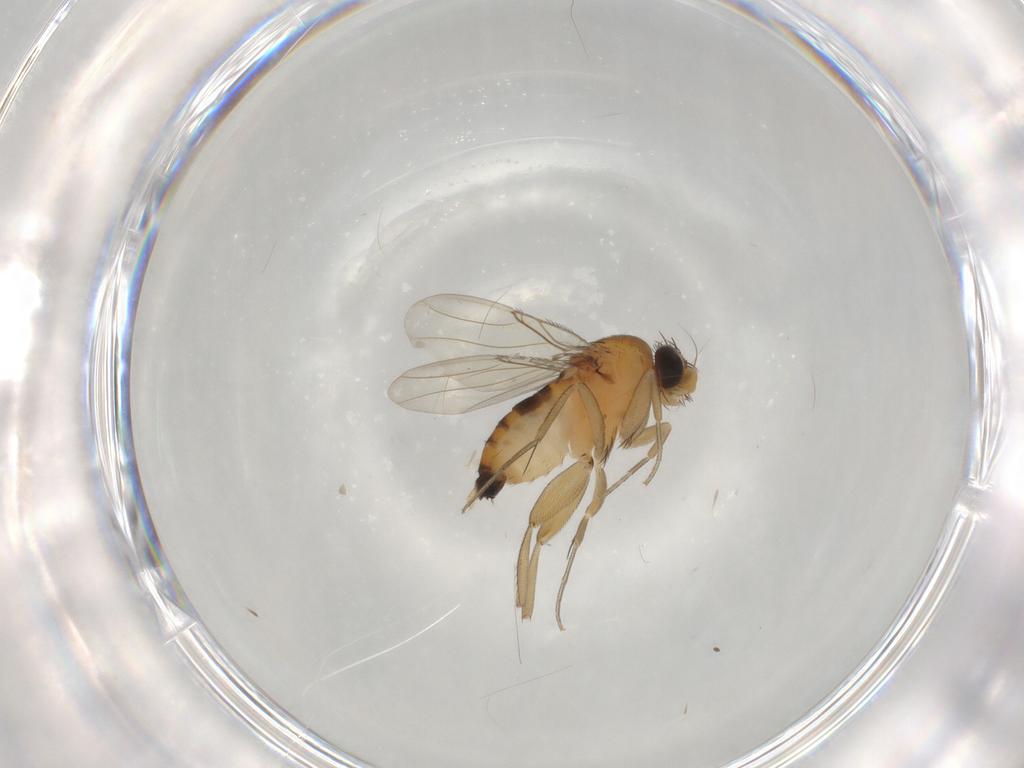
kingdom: Animalia
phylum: Arthropoda
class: Insecta
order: Diptera
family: Phoridae
